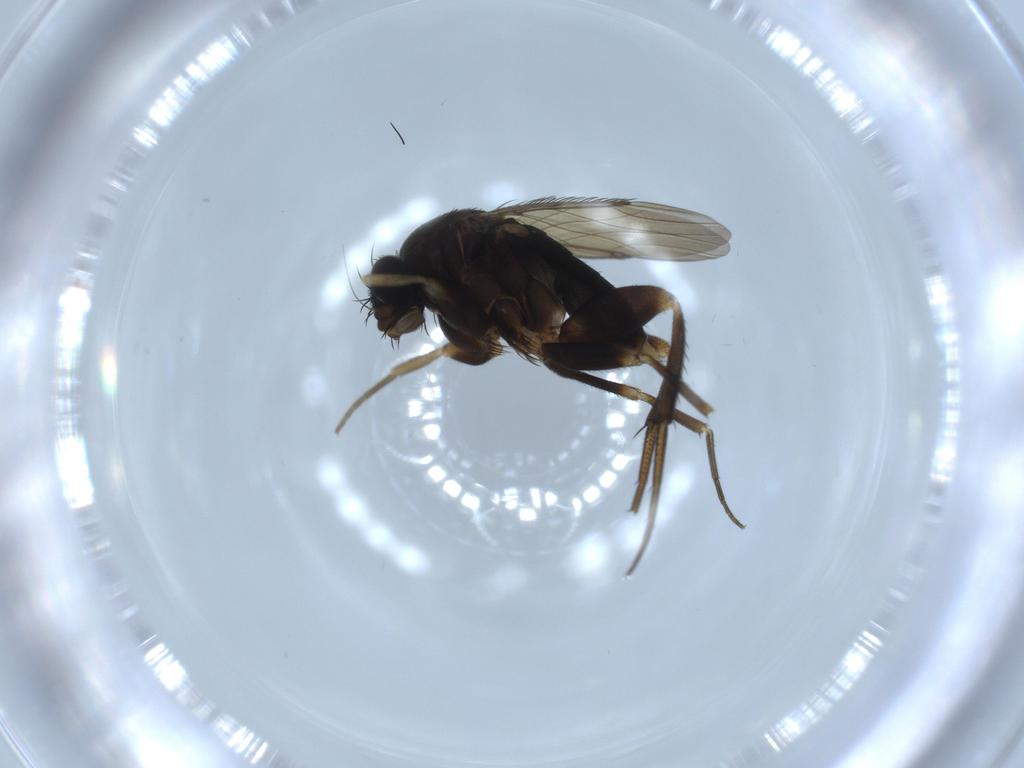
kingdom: Animalia
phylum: Arthropoda
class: Insecta
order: Diptera
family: Phoridae
